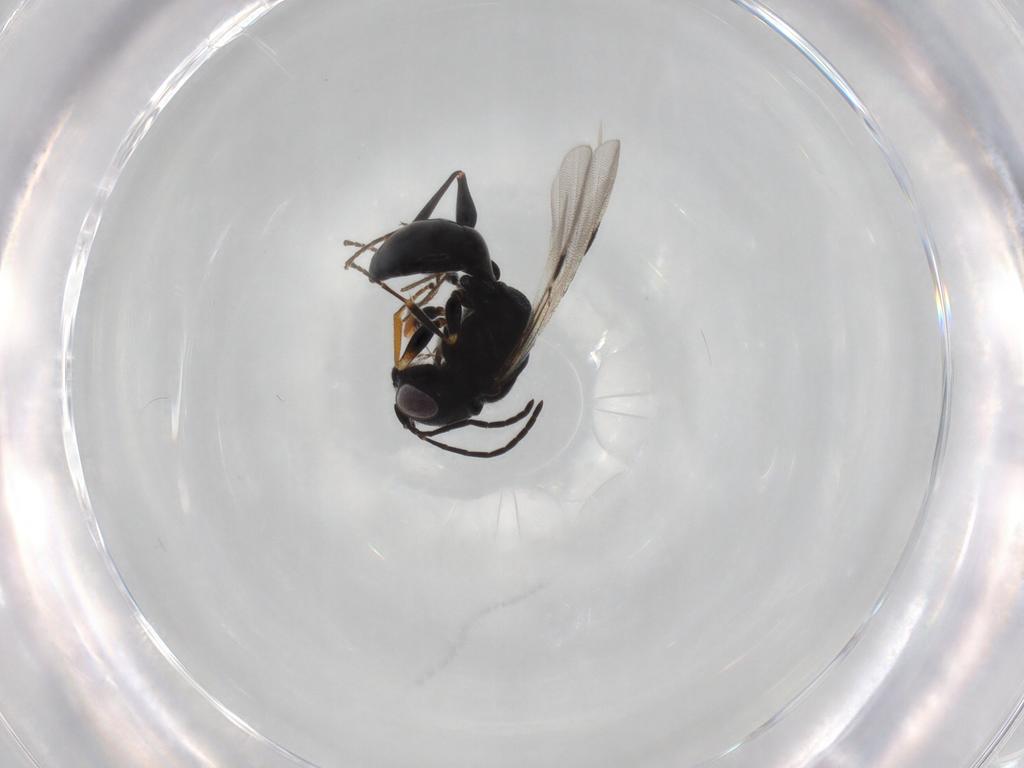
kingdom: Animalia
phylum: Arthropoda
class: Insecta
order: Hymenoptera
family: Dryinidae
